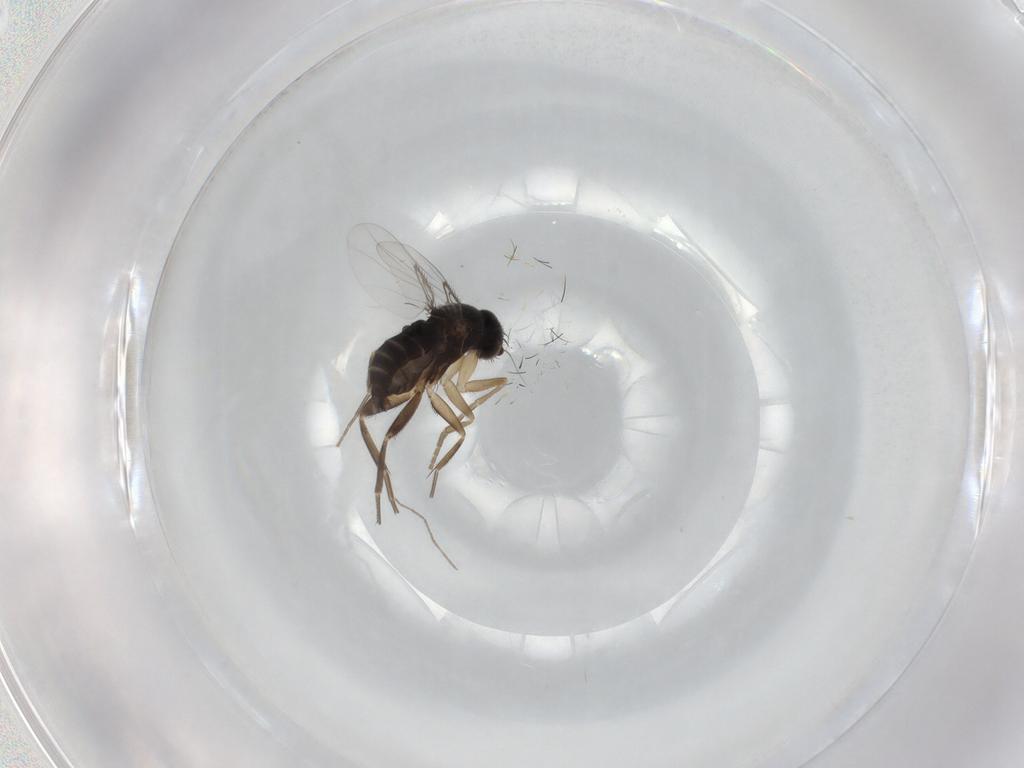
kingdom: Animalia
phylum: Arthropoda
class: Insecta
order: Diptera
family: Phoridae
